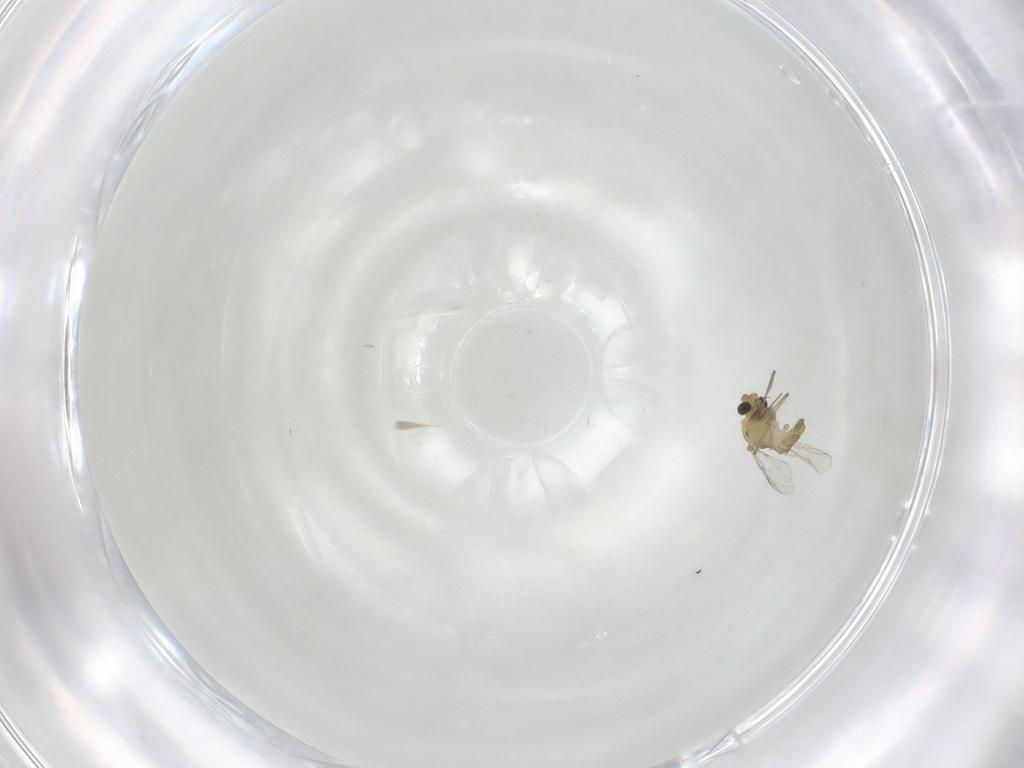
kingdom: Animalia
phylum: Arthropoda
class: Insecta
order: Diptera
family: Chironomidae
